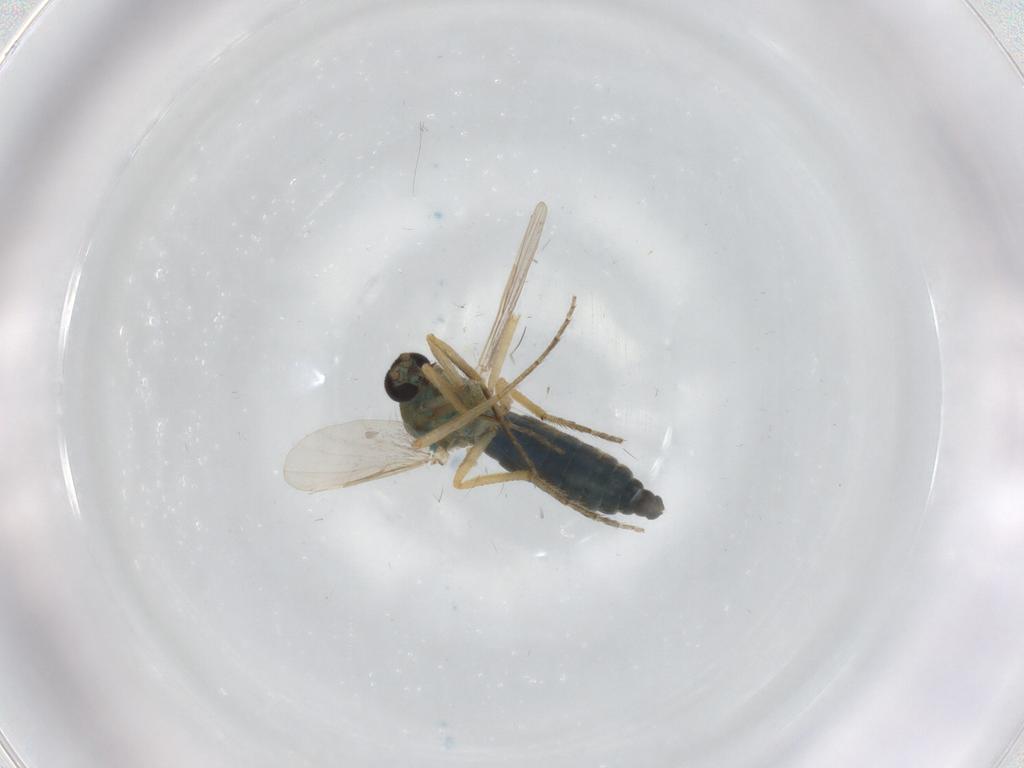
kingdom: Animalia
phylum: Arthropoda
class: Insecta
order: Diptera
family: Ceratopogonidae
